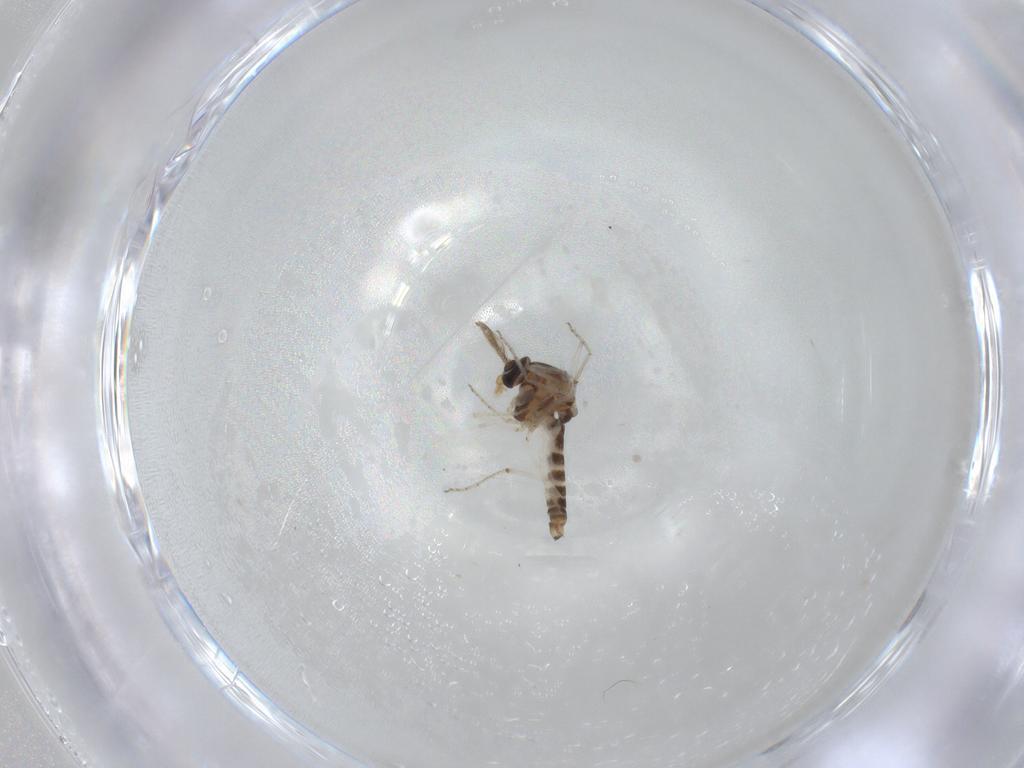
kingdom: Animalia
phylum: Arthropoda
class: Insecta
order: Diptera
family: Ceratopogonidae
